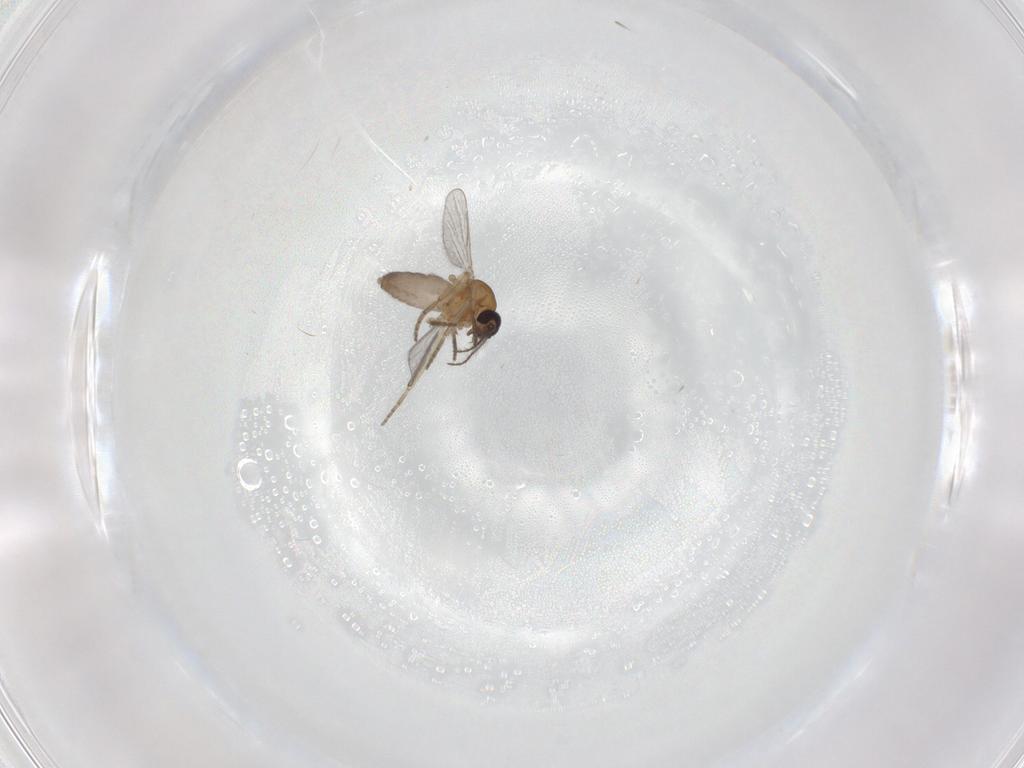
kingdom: Animalia
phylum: Arthropoda
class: Insecta
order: Diptera
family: Ceratopogonidae
